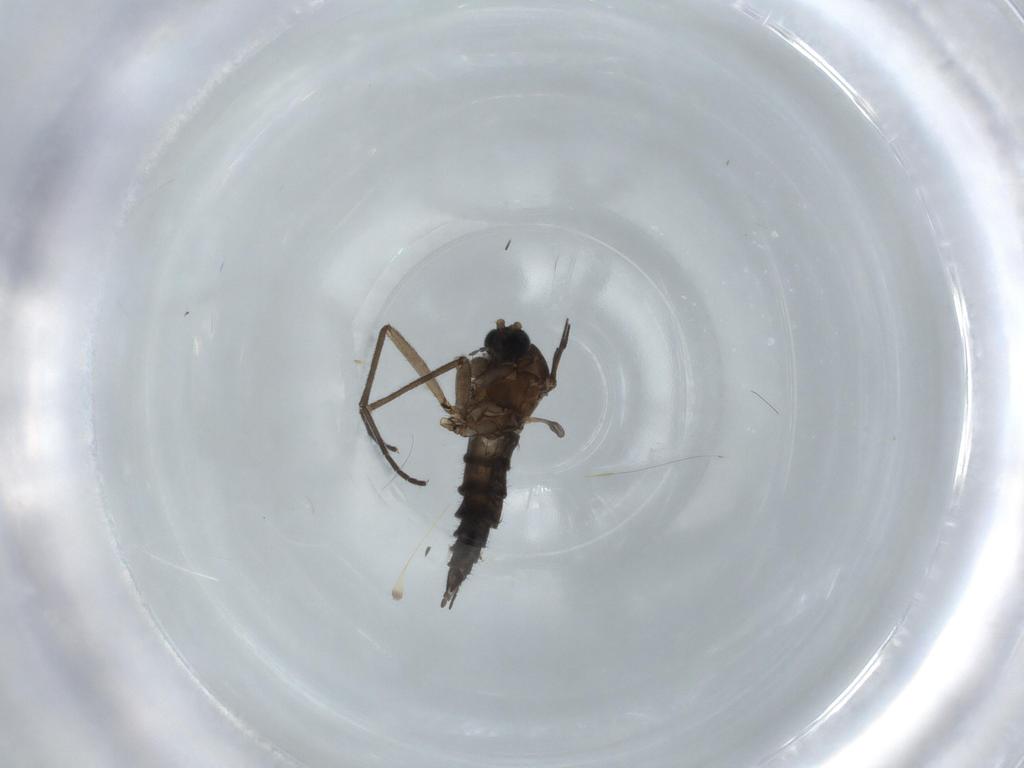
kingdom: Animalia
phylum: Arthropoda
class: Insecta
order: Diptera
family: Sciaridae
